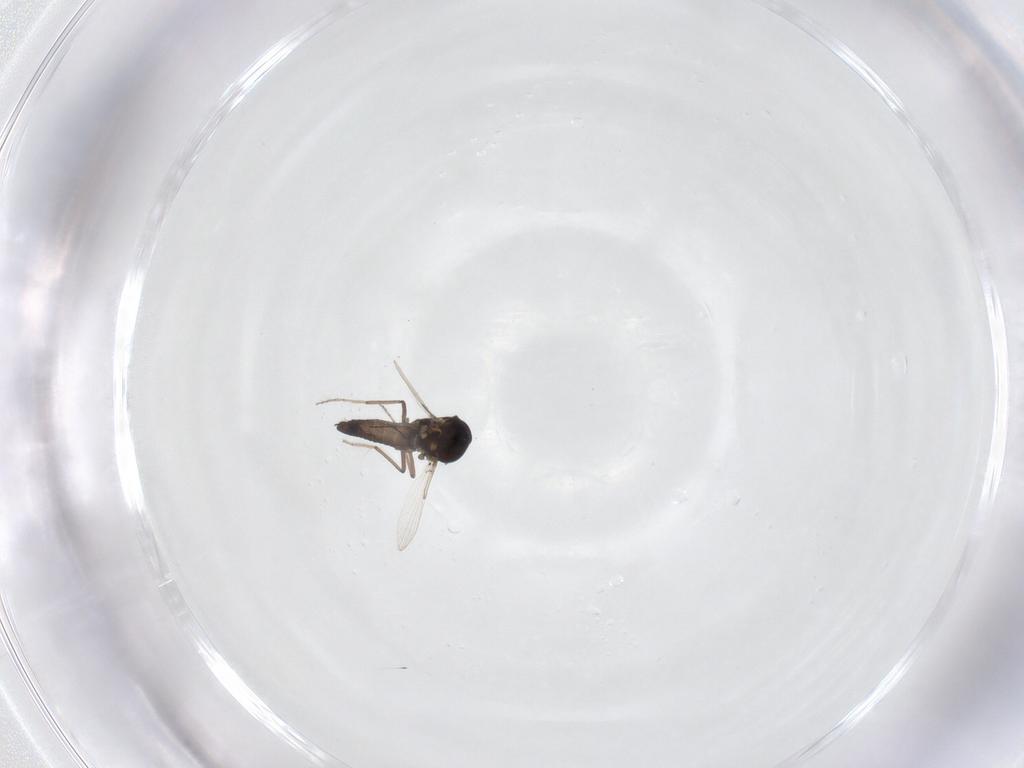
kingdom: Animalia
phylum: Arthropoda
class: Insecta
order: Diptera
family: Ceratopogonidae
